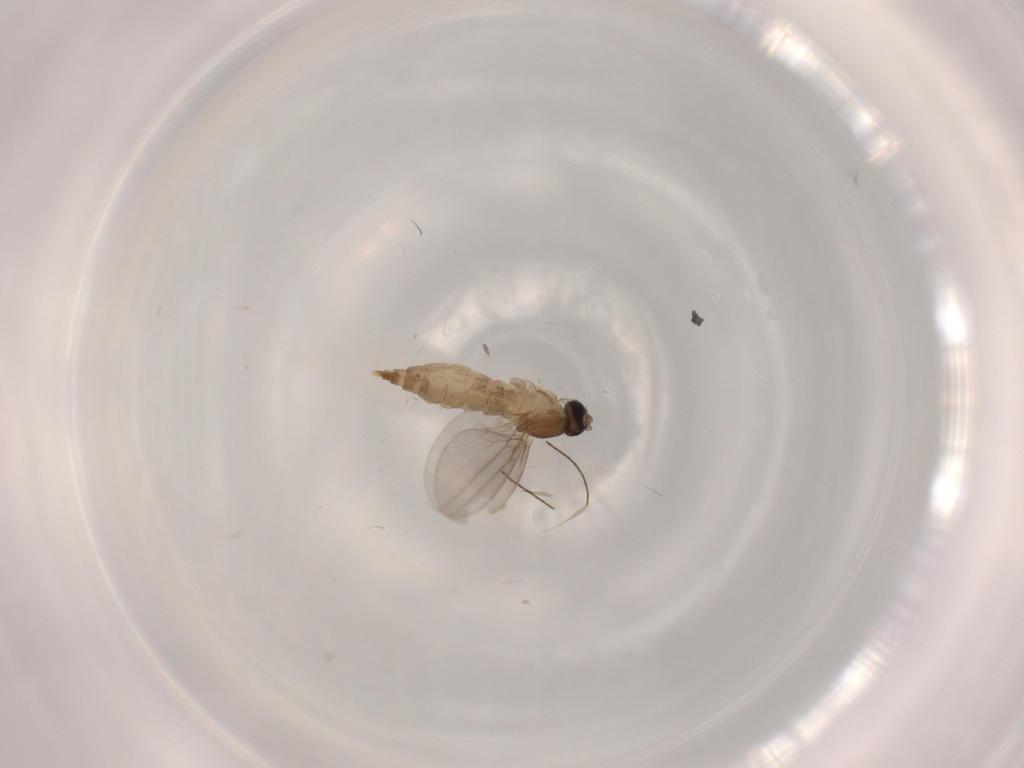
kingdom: Animalia
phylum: Arthropoda
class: Insecta
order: Diptera
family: Cecidomyiidae
